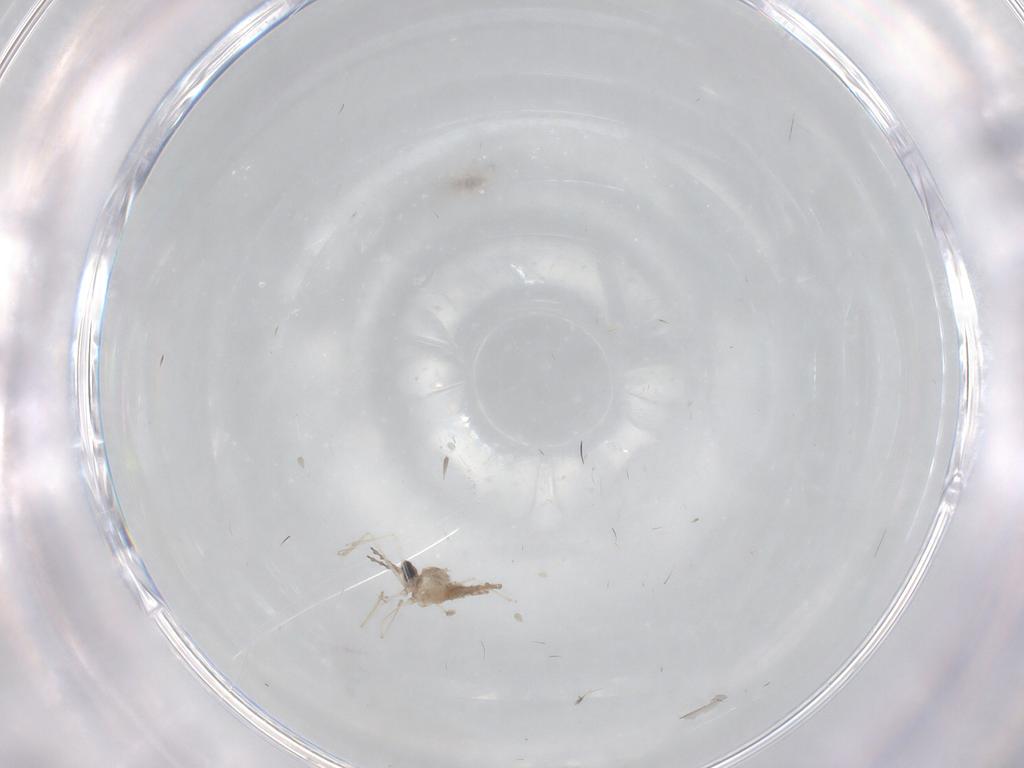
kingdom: Animalia
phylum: Arthropoda
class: Insecta
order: Diptera
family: Cecidomyiidae
